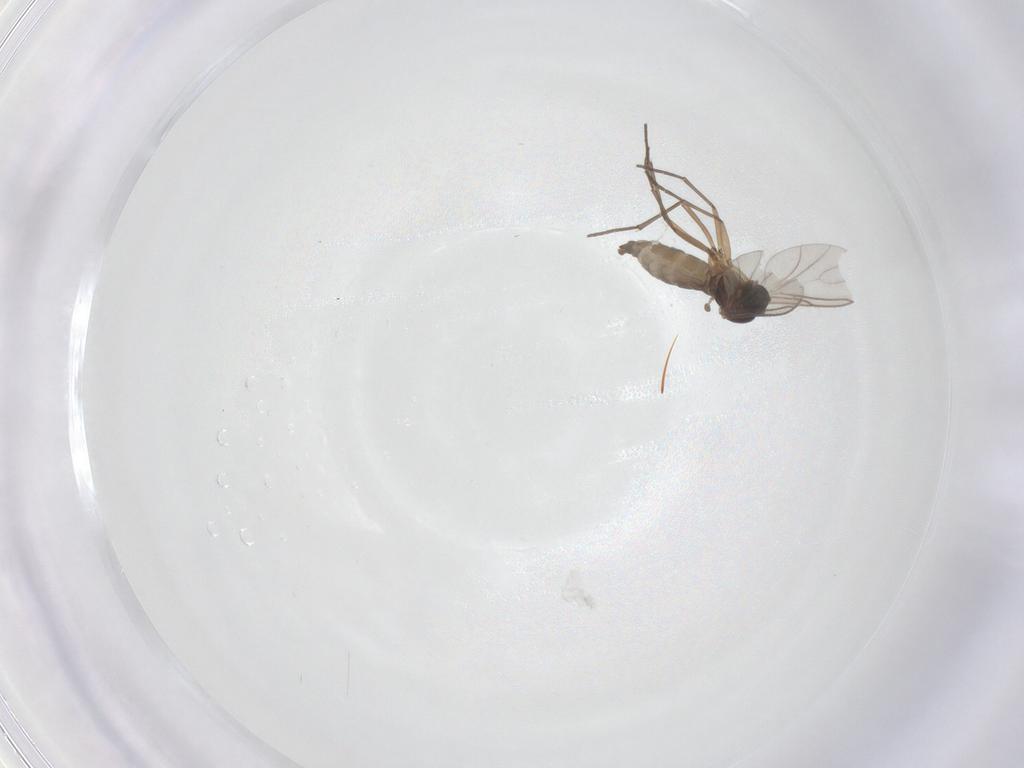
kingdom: Animalia
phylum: Arthropoda
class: Insecta
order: Diptera
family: Sciaridae
